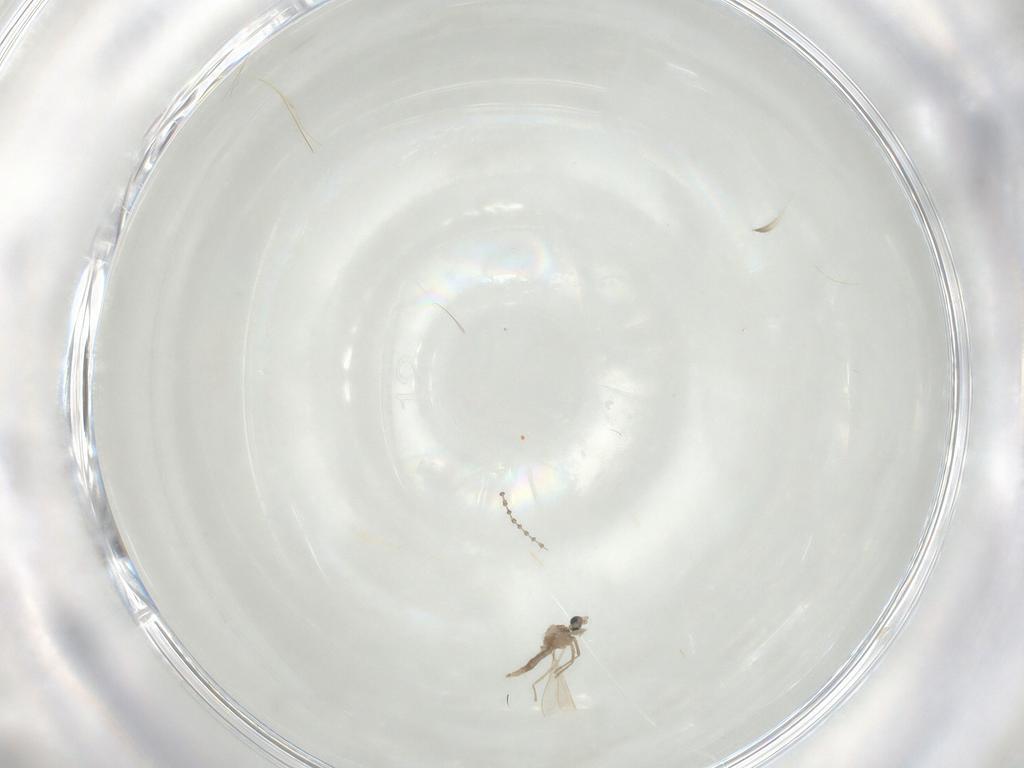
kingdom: Animalia
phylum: Arthropoda
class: Insecta
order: Diptera
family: Cecidomyiidae
